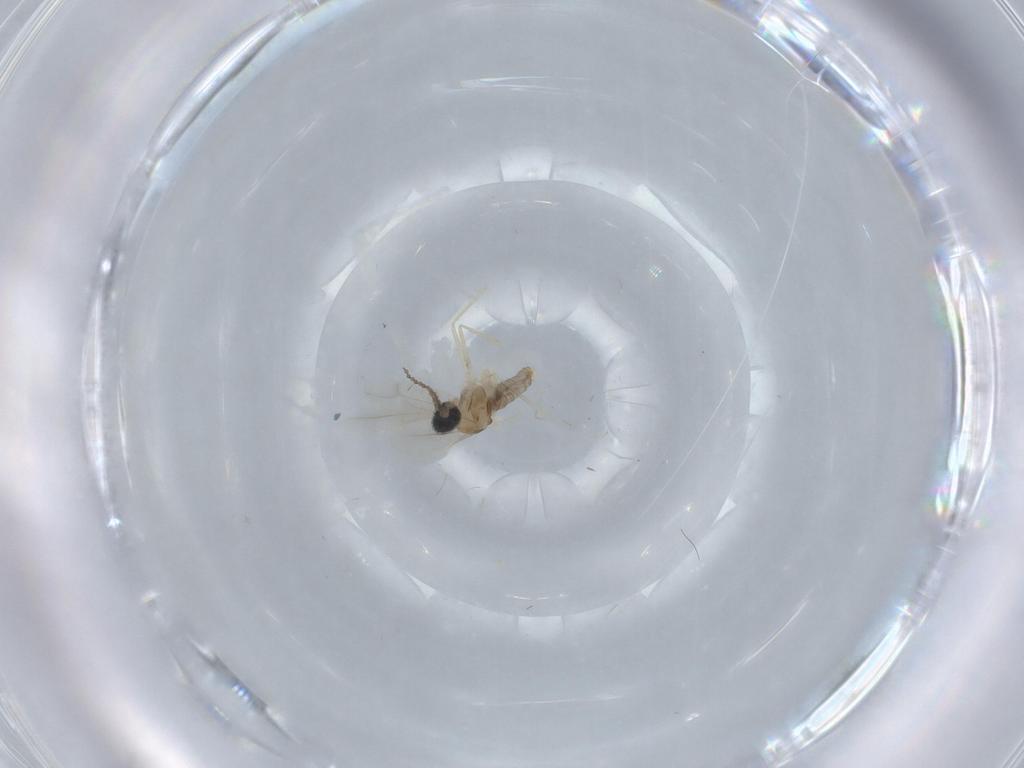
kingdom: Animalia
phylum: Arthropoda
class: Insecta
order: Diptera
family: Cecidomyiidae
